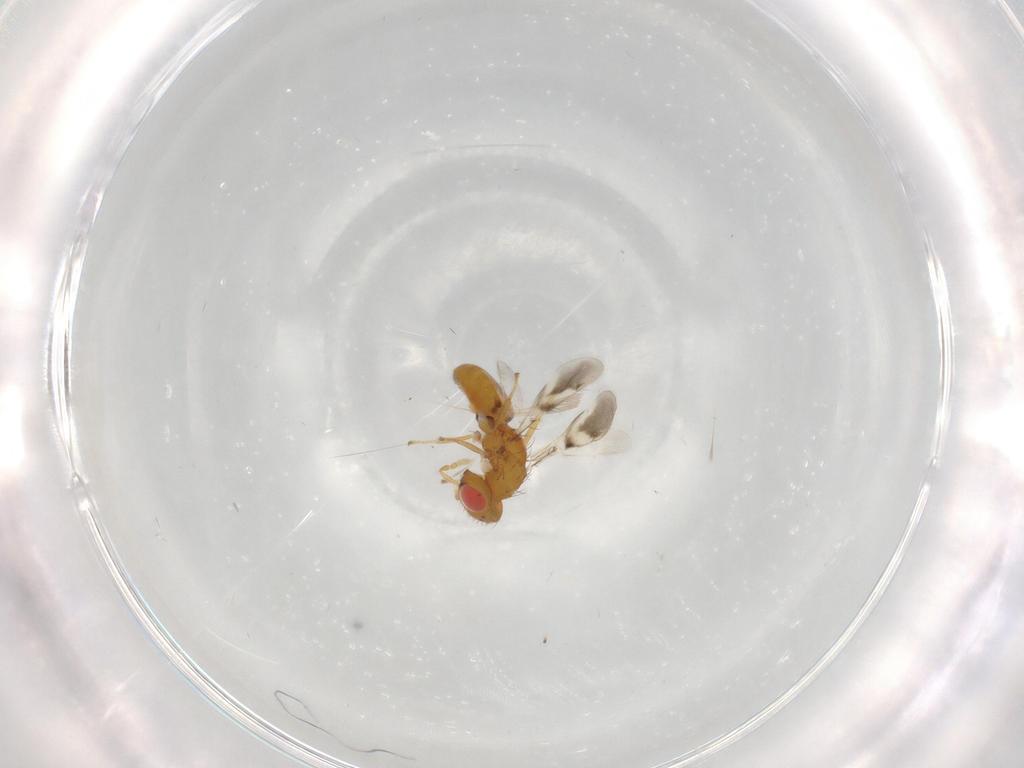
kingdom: Animalia
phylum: Arthropoda
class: Insecta
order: Hymenoptera
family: Eulophidae
